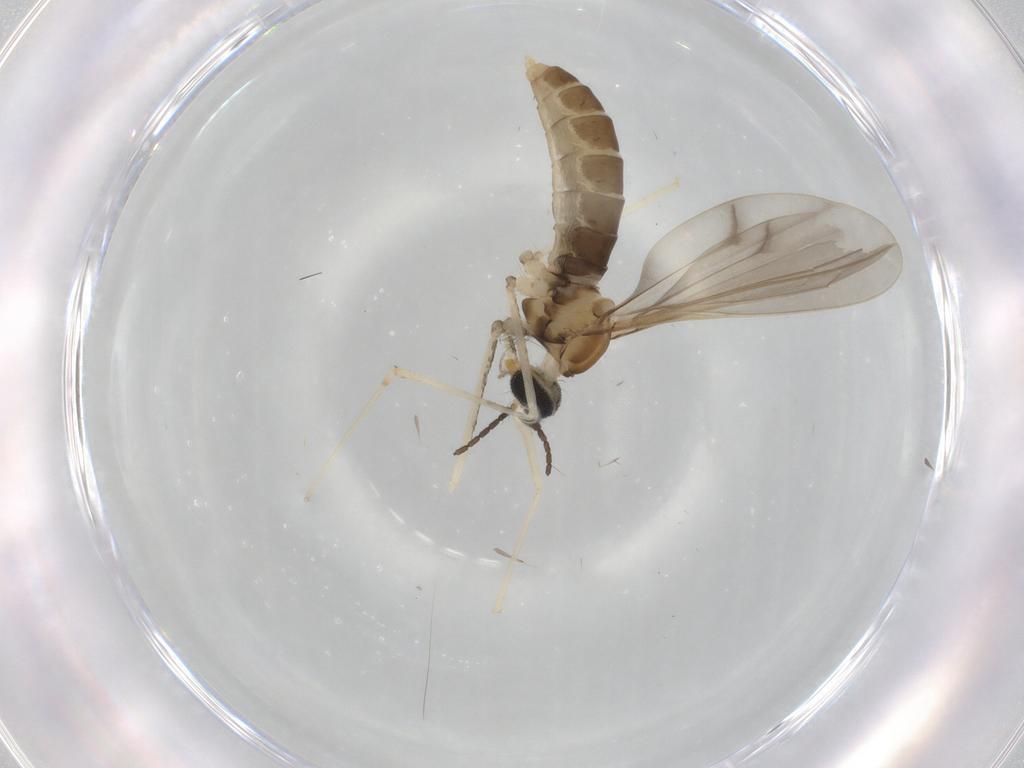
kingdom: Animalia
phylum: Arthropoda
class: Insecta
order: Diptera
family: Cecidomyiidae
